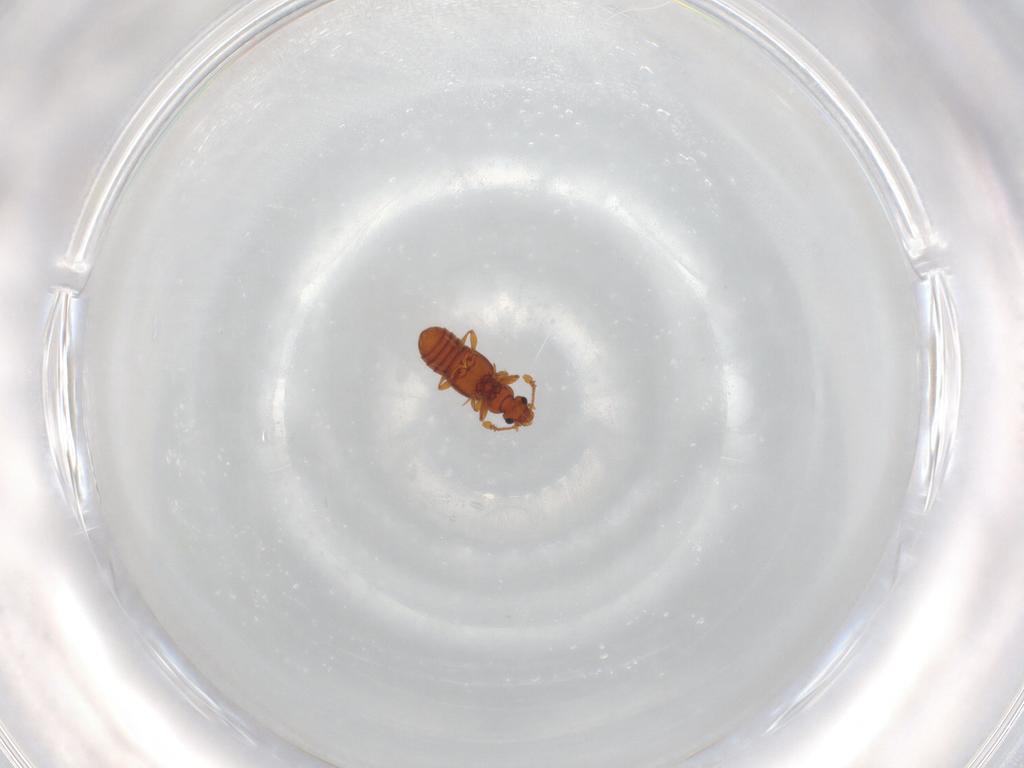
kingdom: Animalia
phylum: Arthropoda
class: Insecta
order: Coleoptera
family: Staphylinidae
